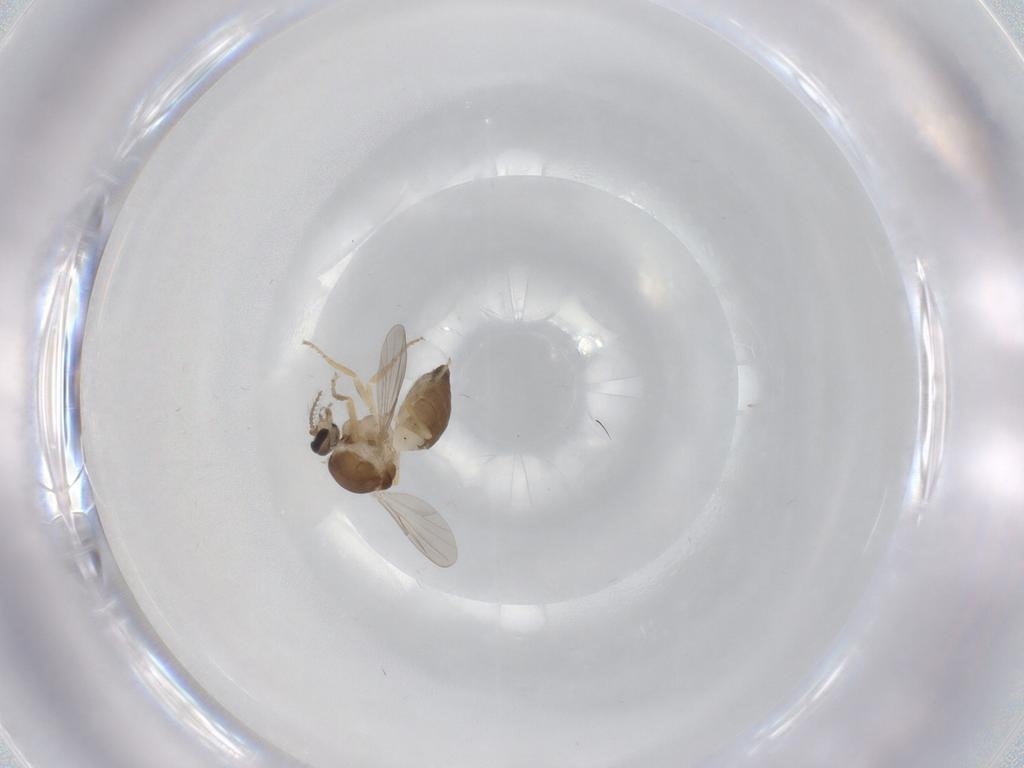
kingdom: Animalia
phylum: Arthropoda
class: Insecta
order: Diptera
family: Ceratopogonidae
